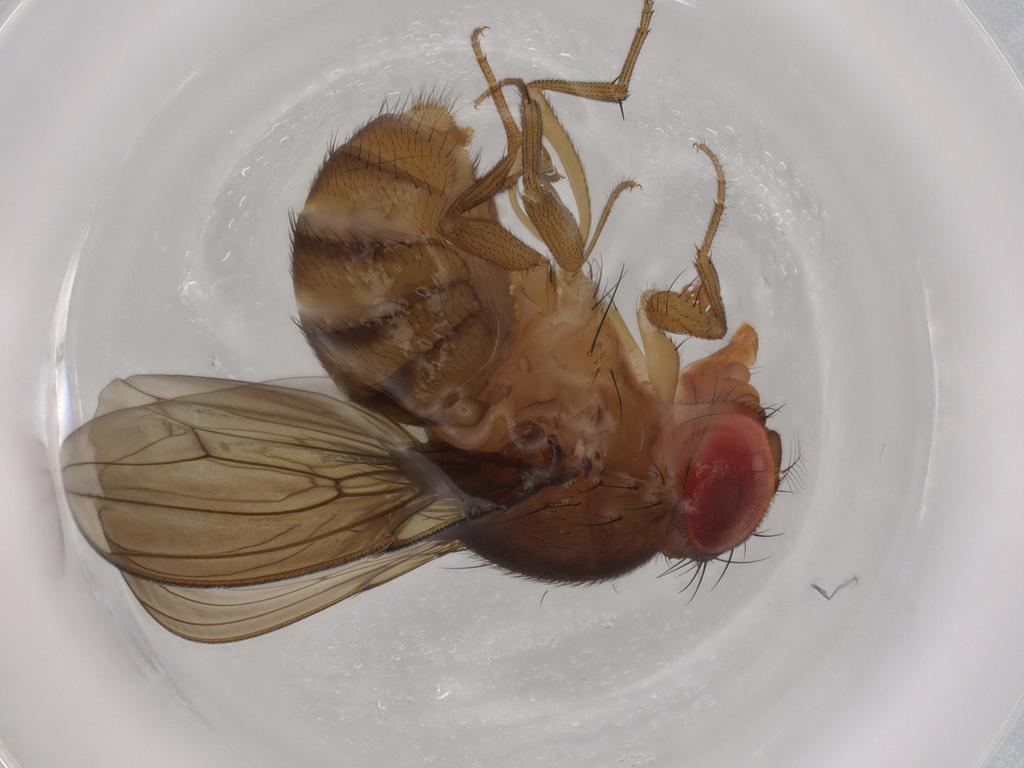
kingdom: Animalia
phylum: Arthropoda
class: Insecta
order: Diptera
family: Drosophilidae
